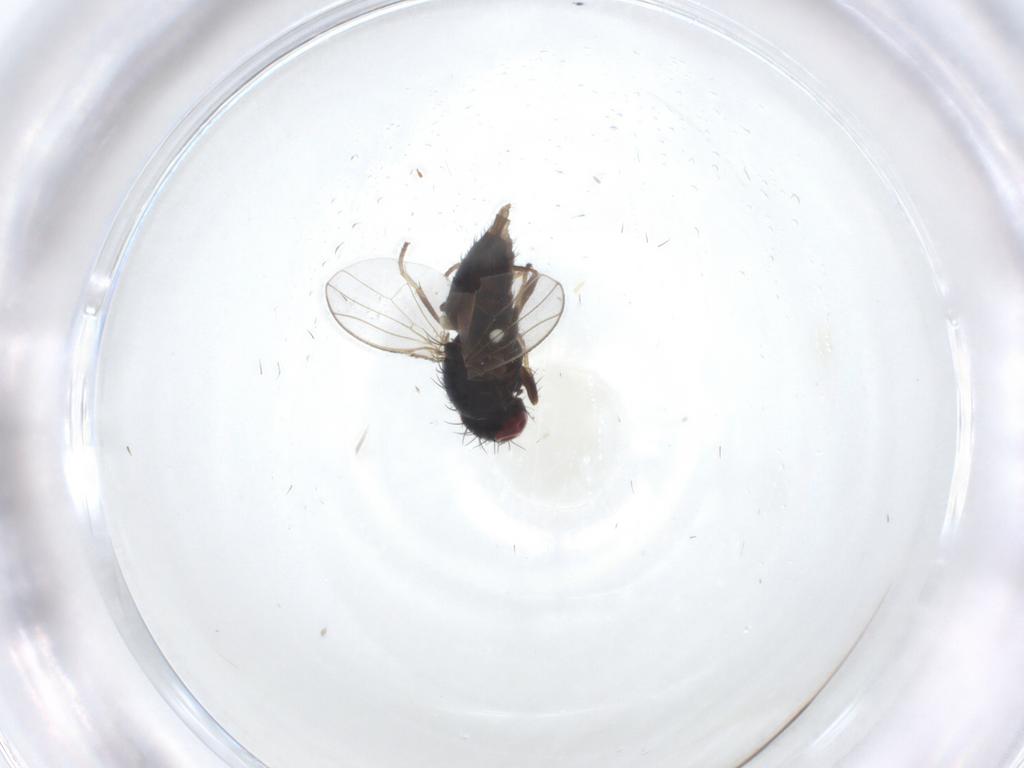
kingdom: Animalia
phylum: Arthropoda
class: Insecta
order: Diptera
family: Carnidae
